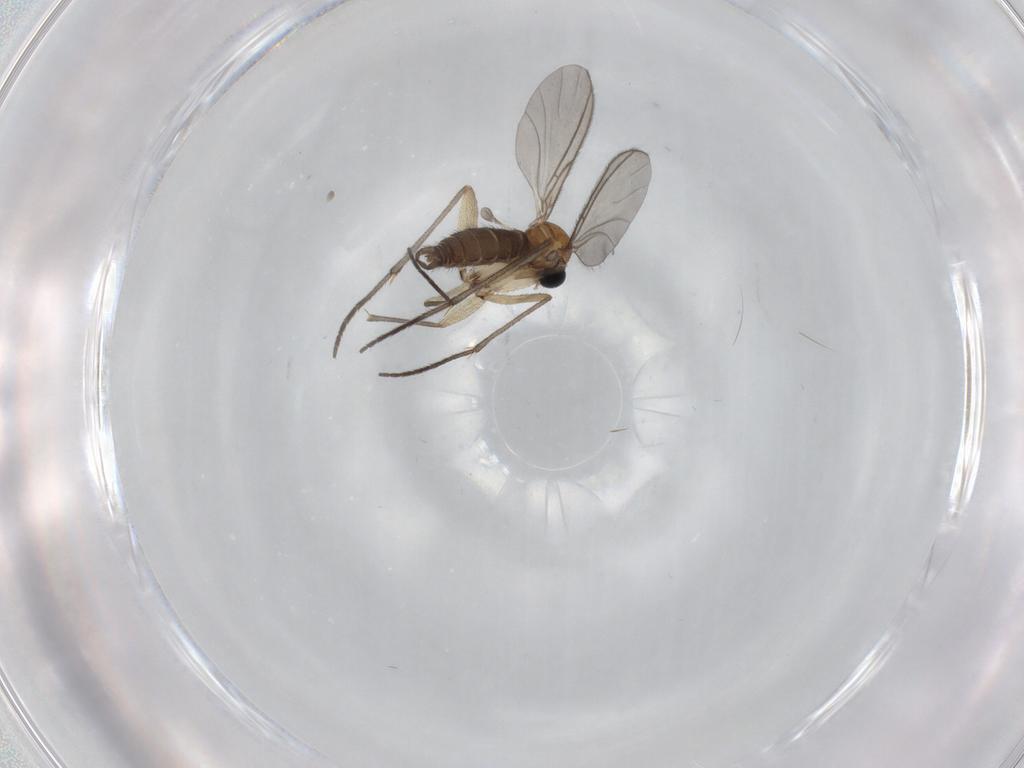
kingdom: Animalia
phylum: Arthropoda
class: Insecta
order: Diptera
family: Sciaridae
